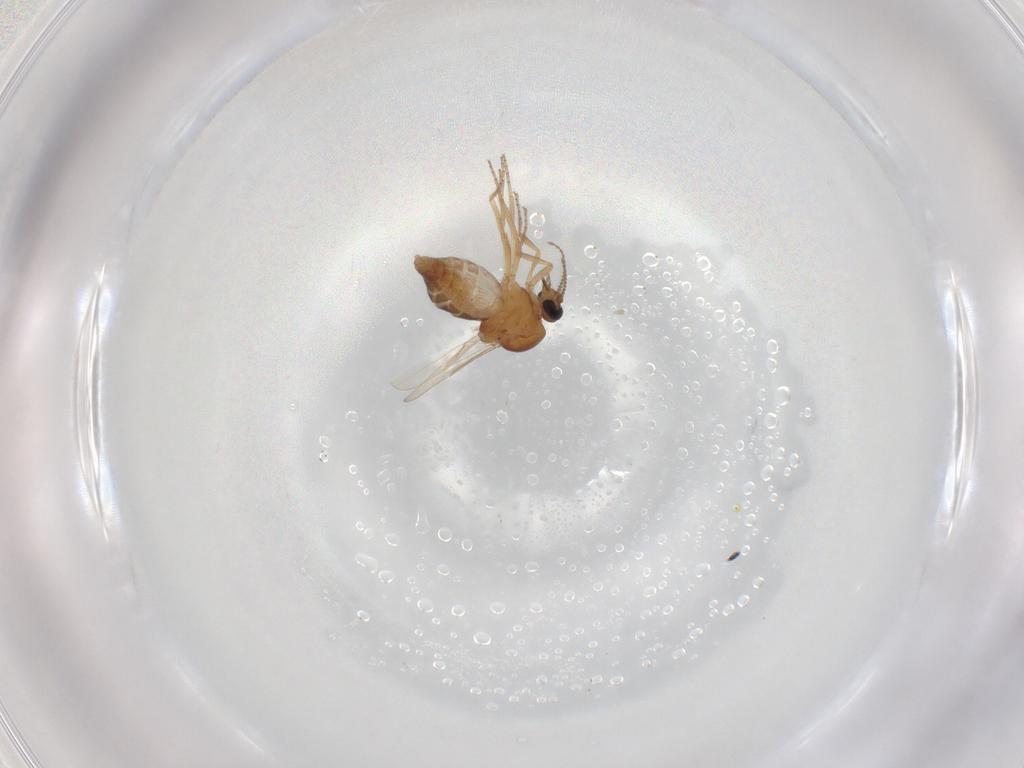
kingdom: Animalia
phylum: Arthropoda
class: Insecta
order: Diptera
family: Ceratopogonidae
